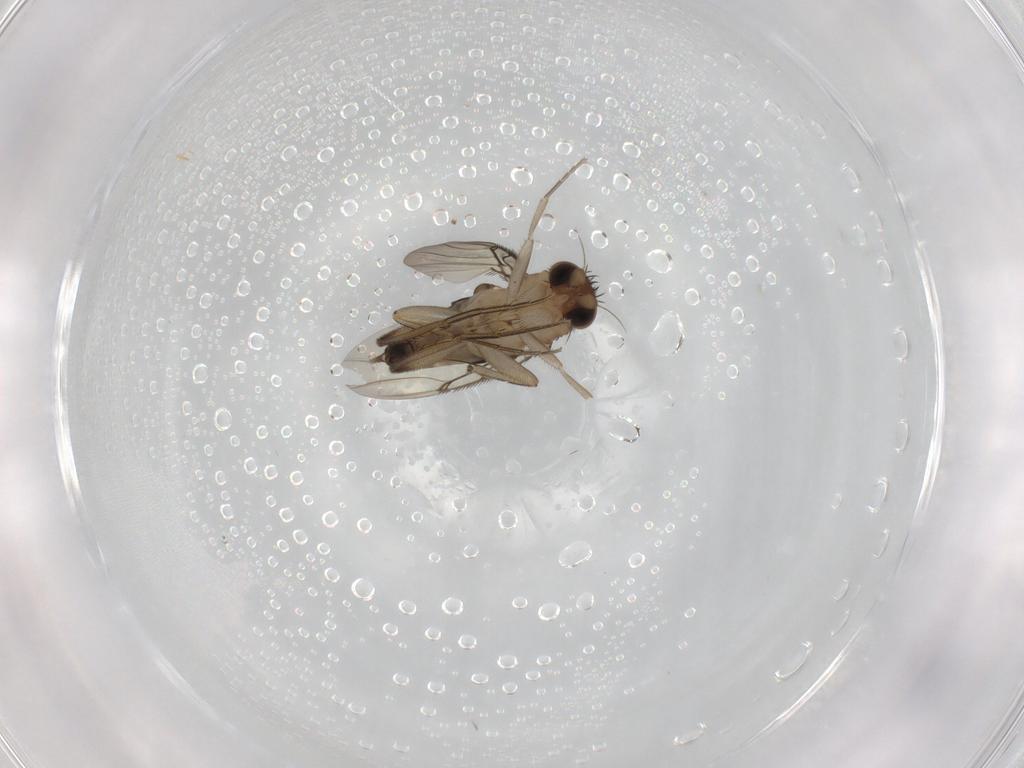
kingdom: Animalia
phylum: Arthropoda
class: Insecta
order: Diptera
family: Phoridae
